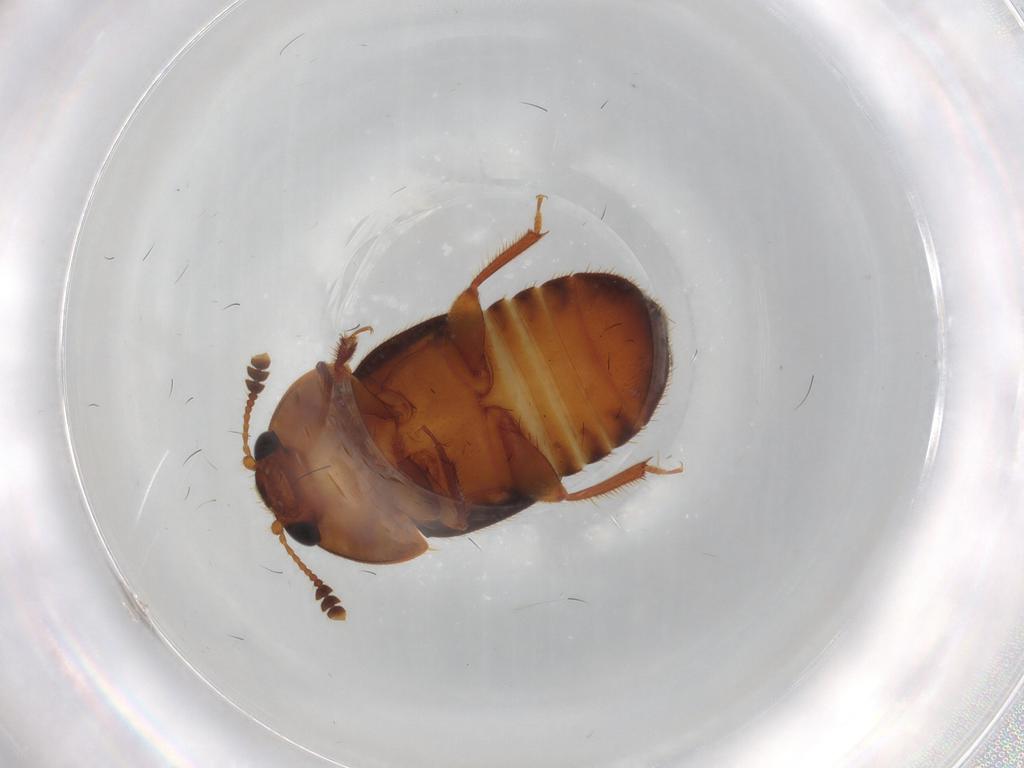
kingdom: Animalia
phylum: Arthropoda
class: Insecta
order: Coleoptera
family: Nitidulidae
